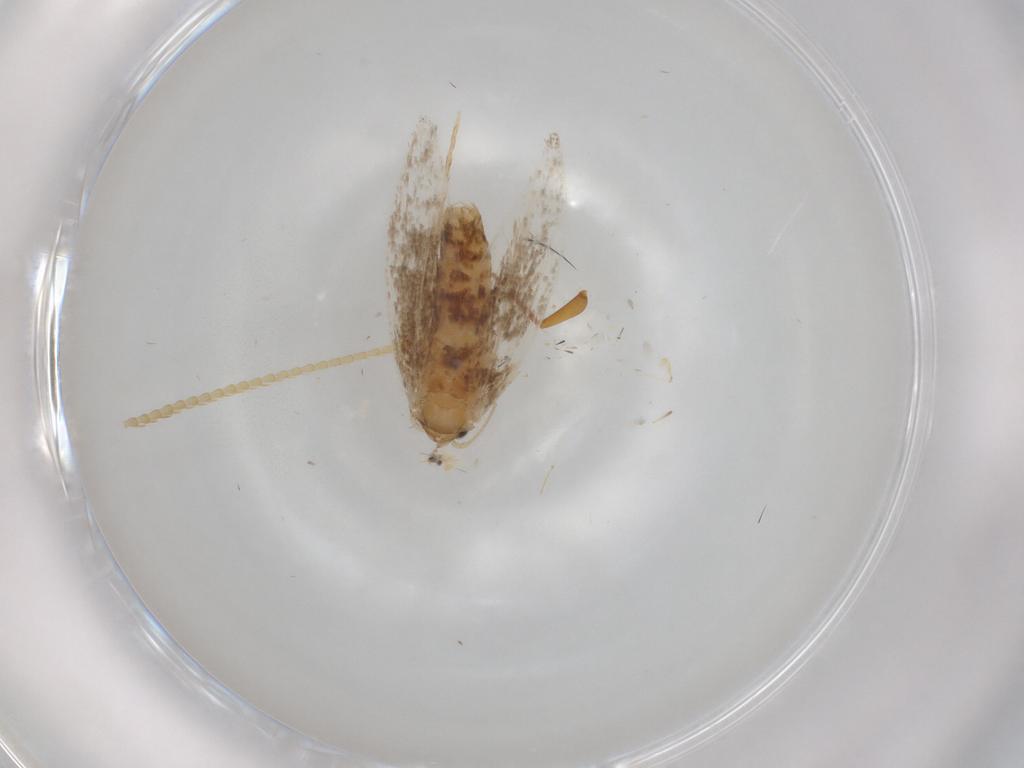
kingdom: Animalia
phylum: Arthropoda
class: Insecta
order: Lepidoptera
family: Incurvariidae
